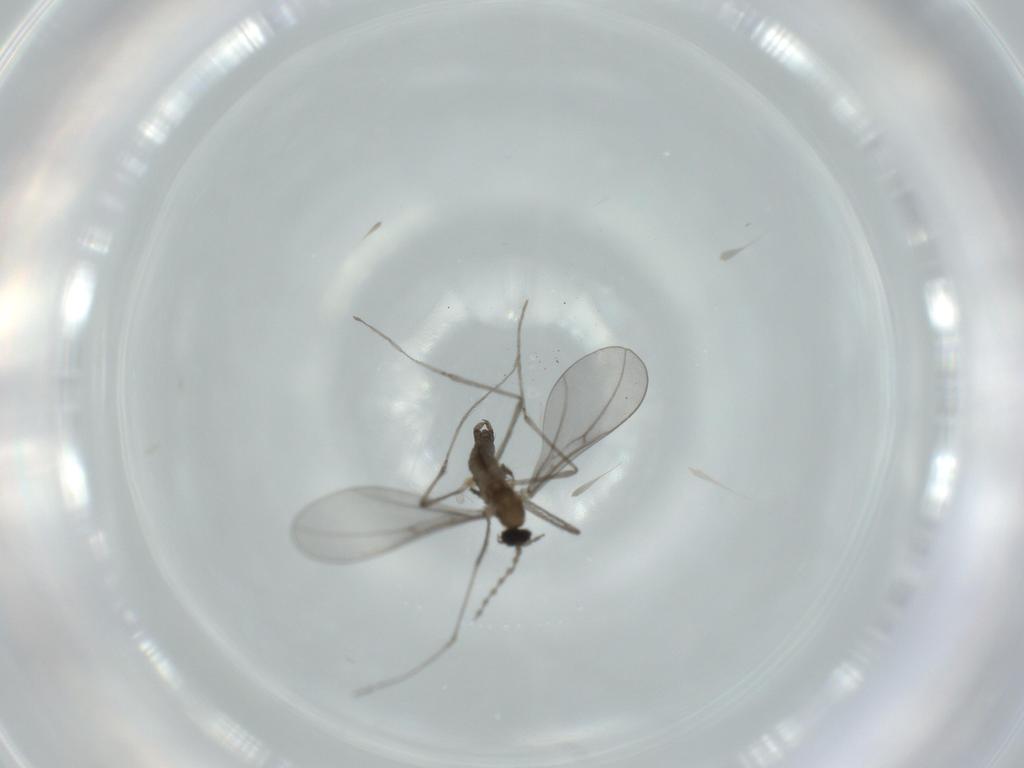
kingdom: Animalia
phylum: Arthropoda
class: Insecta
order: Diptera
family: Cecidomyiidae
